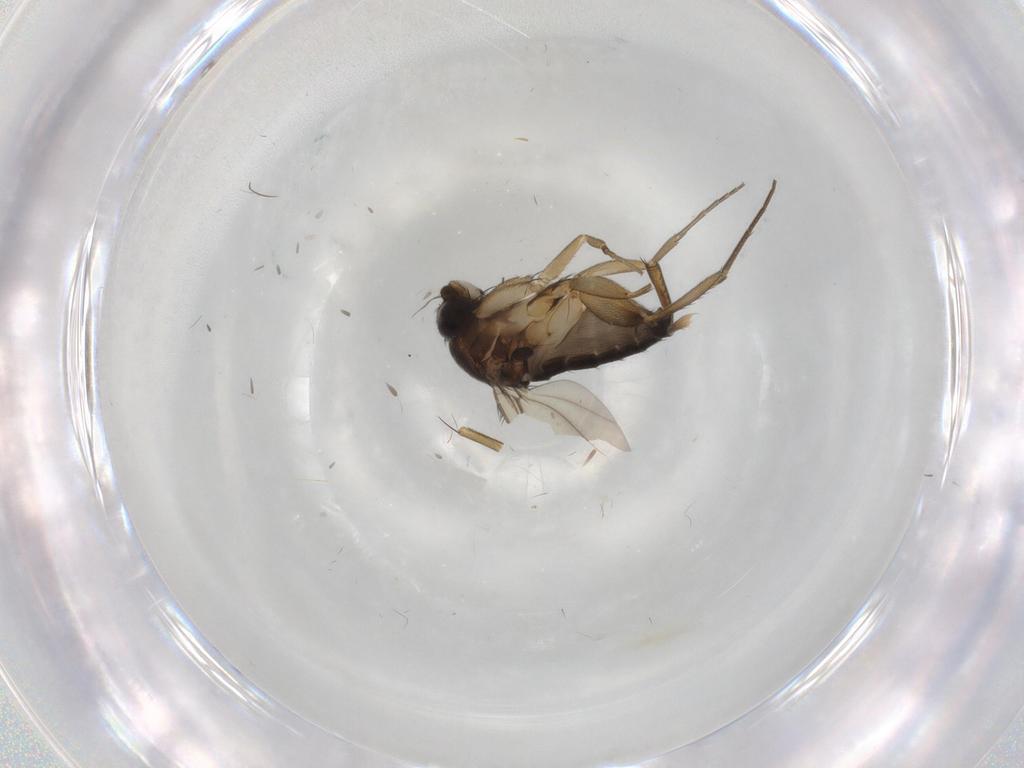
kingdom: Animalia
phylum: Arthropoda
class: Insecta
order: Diptera
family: Phoridae
